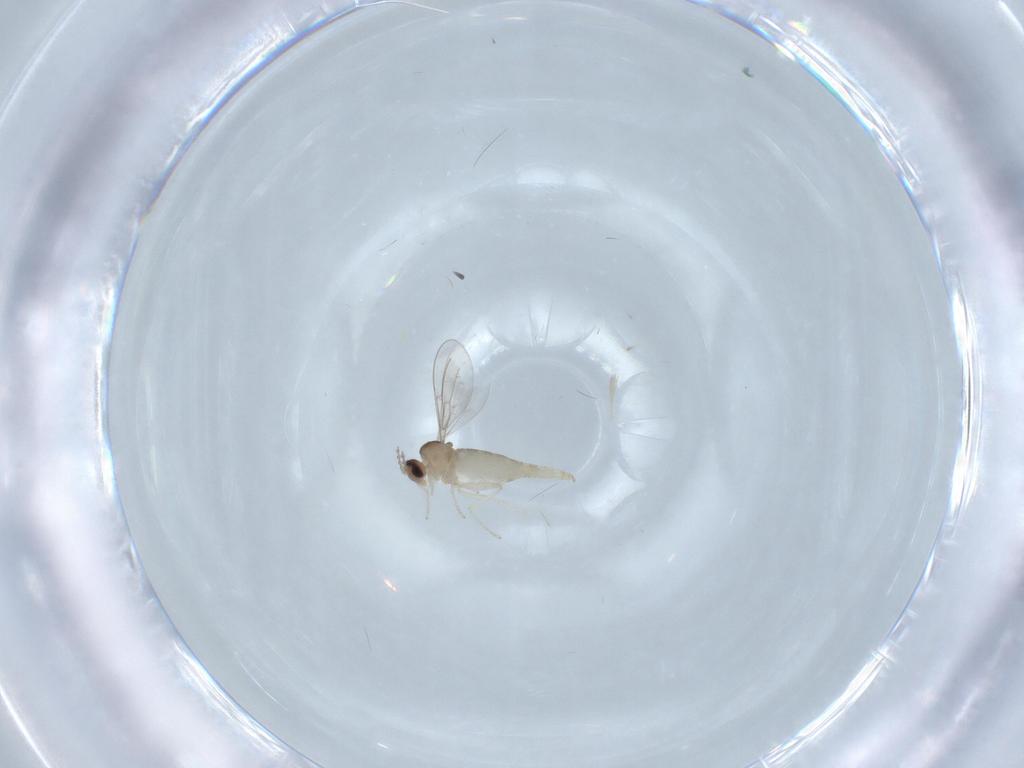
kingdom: Animalia
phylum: Arthropoda
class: Insecta
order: Diptera
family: Cecidomyiidae
